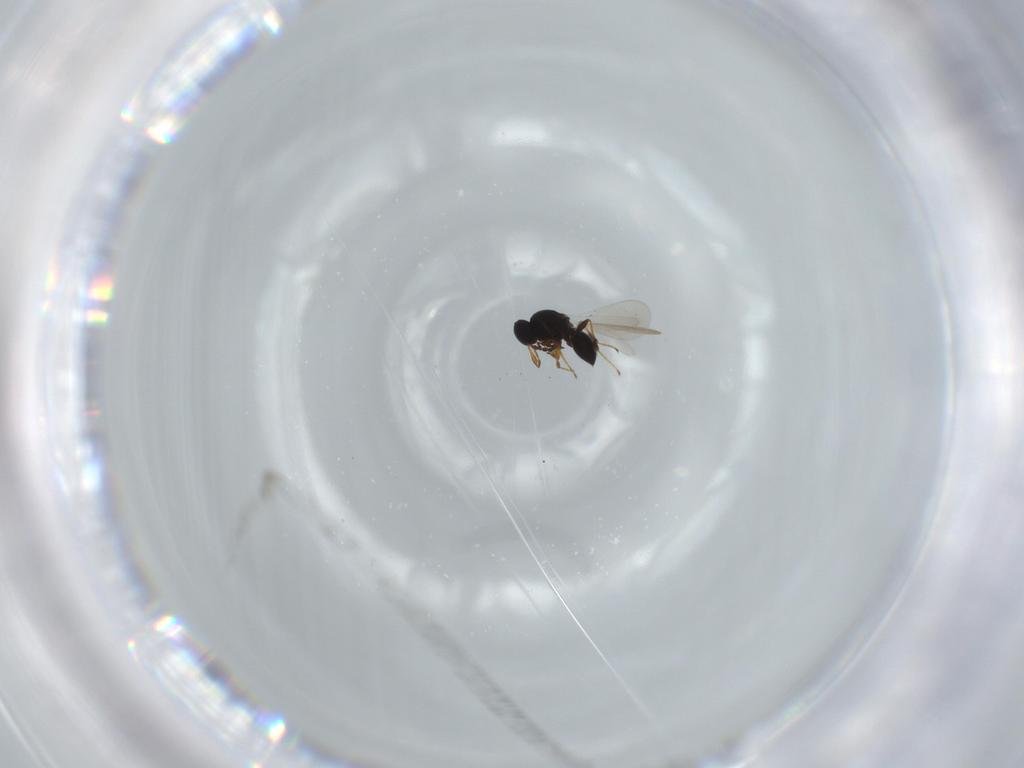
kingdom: Animalia
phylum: Arthropoda
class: Insecta
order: Hymenoptera
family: Platygastridae
